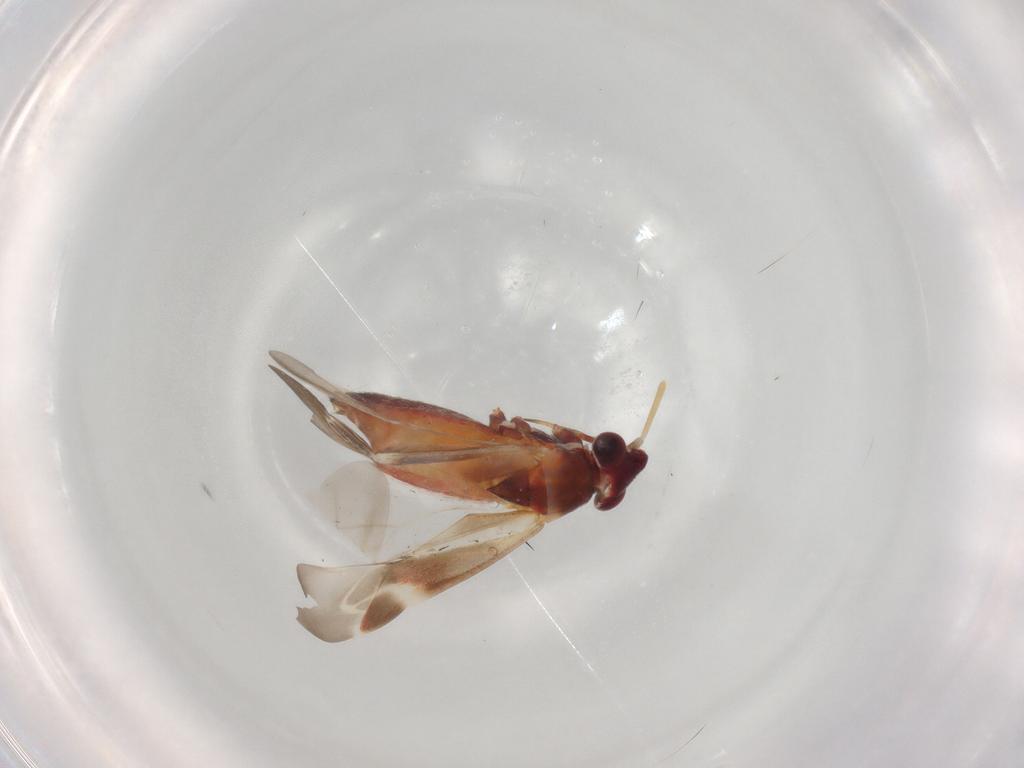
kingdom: Animalia
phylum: Arthropoda
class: Insecta
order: Hemiptera
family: Miridae
